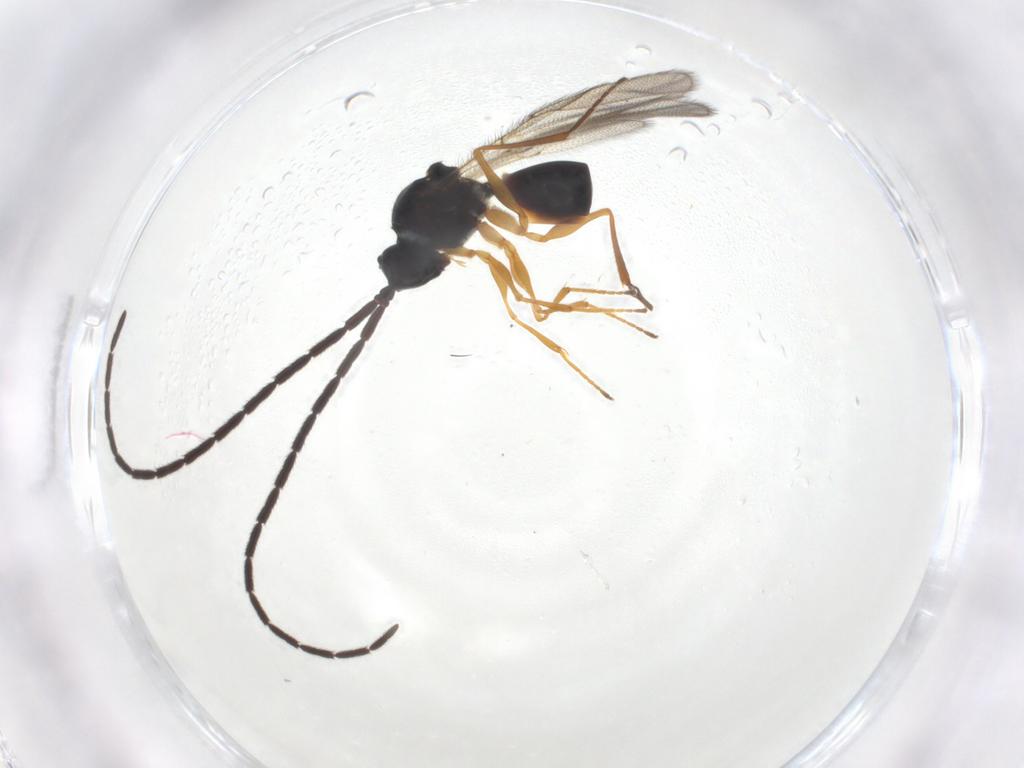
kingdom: Animalia
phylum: Arthropoda
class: Insecta
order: Hymenoptera
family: Figitidae
